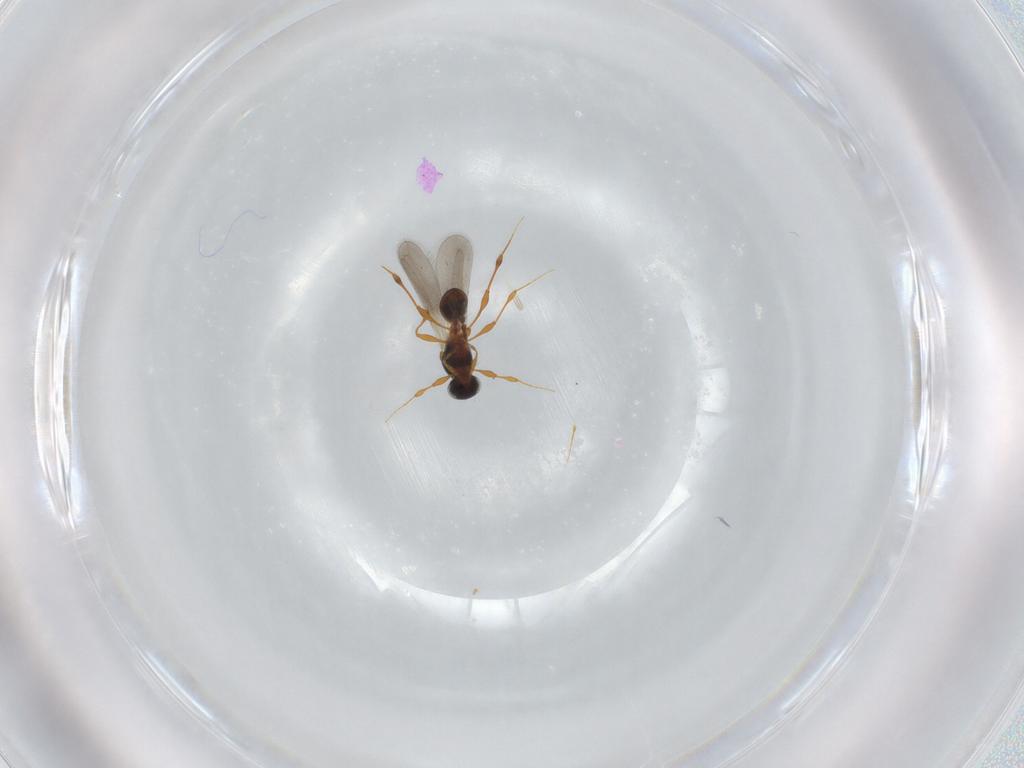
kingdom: Animalia
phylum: Arthropoda
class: Insecta
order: Hymenoptera
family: Platygastridae
